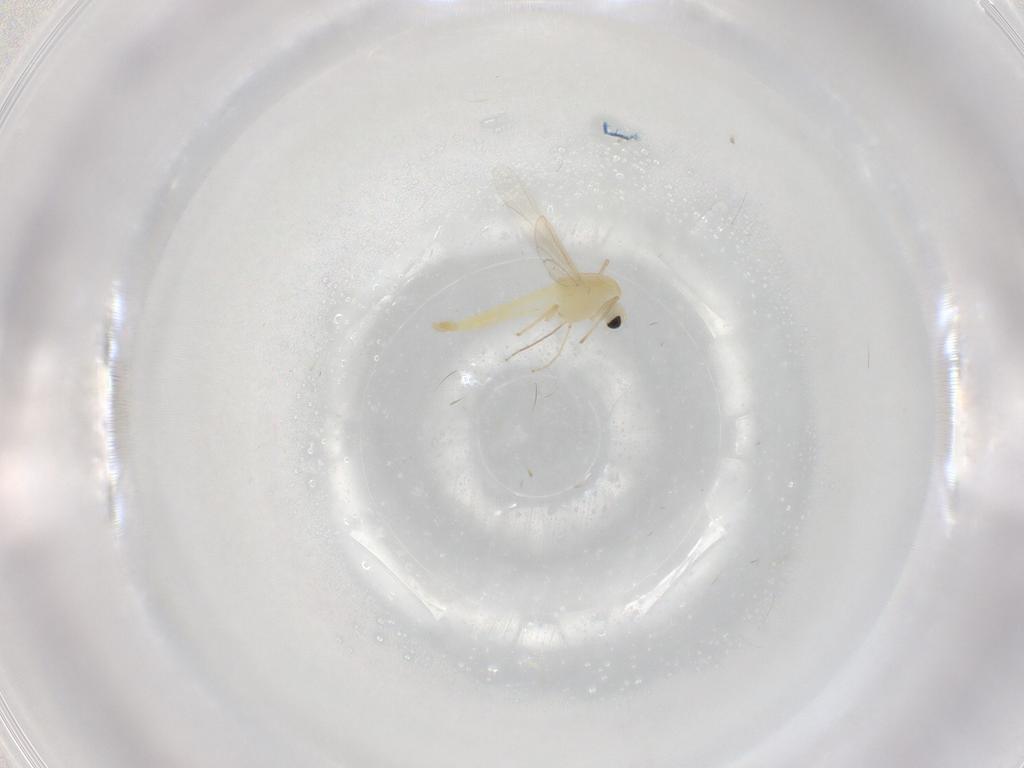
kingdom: Animalia
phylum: Arthropoda
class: Insecta
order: Diptera
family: Chironomidae
